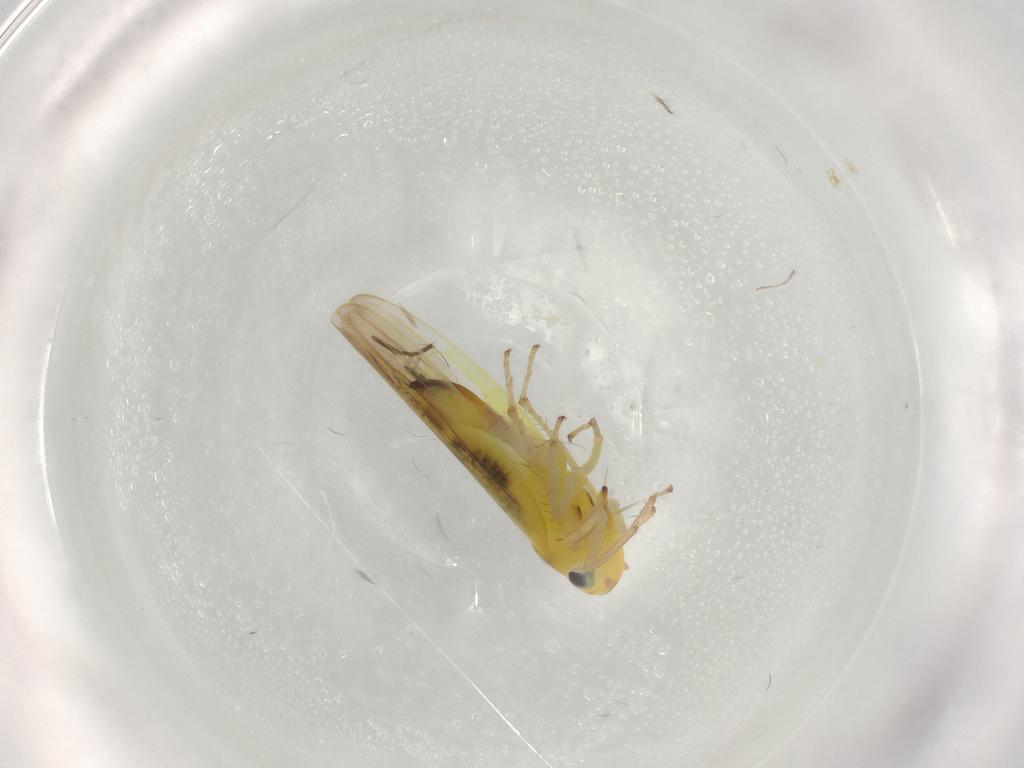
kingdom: Animalia
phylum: Arthropoda
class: Insecta
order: Hemiptera
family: Cicadellidae
